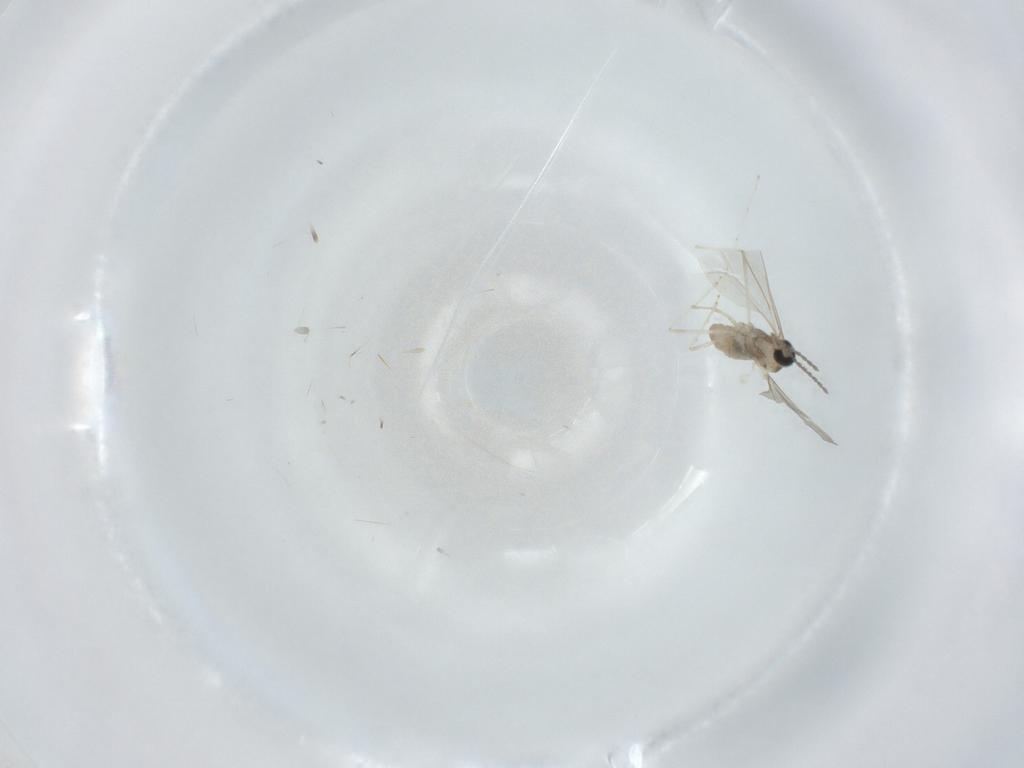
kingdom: Animalia
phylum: Arthropoda
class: Insecta
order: Diptera
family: Cecidomyiidae
